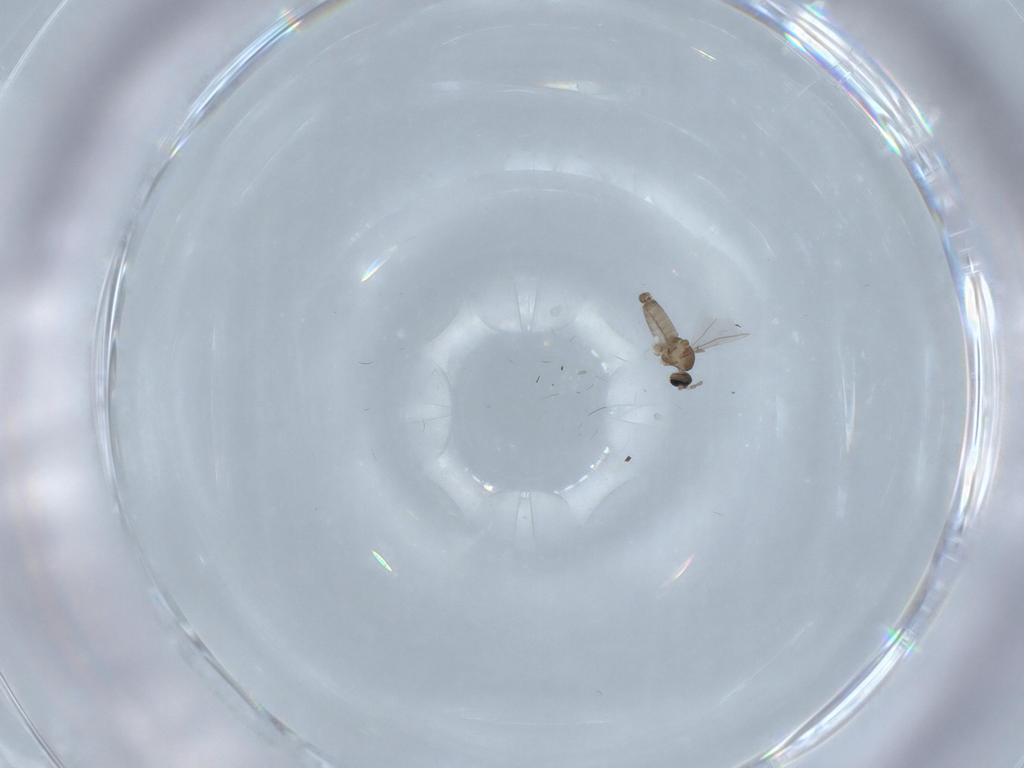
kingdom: Animalia
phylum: Arthropoda
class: Insecta
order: Diptera
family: Cecidomyiidae
